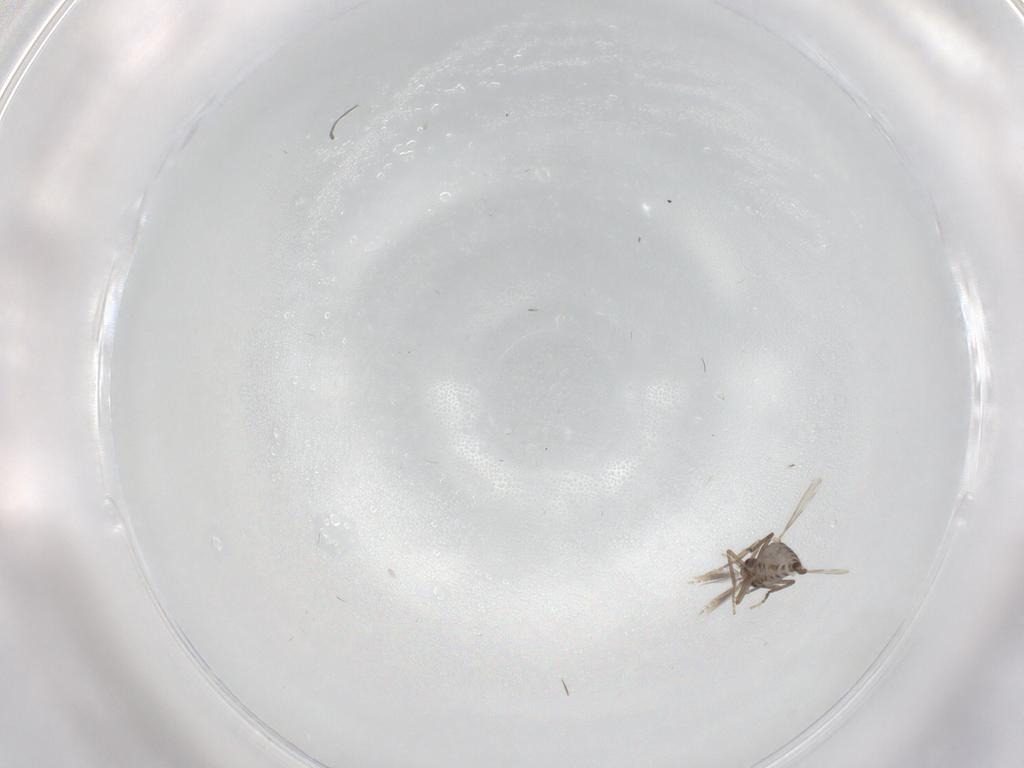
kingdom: Animalia
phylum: Arthropoda
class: Insecta
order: Diptera
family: Ceratopogonidae
